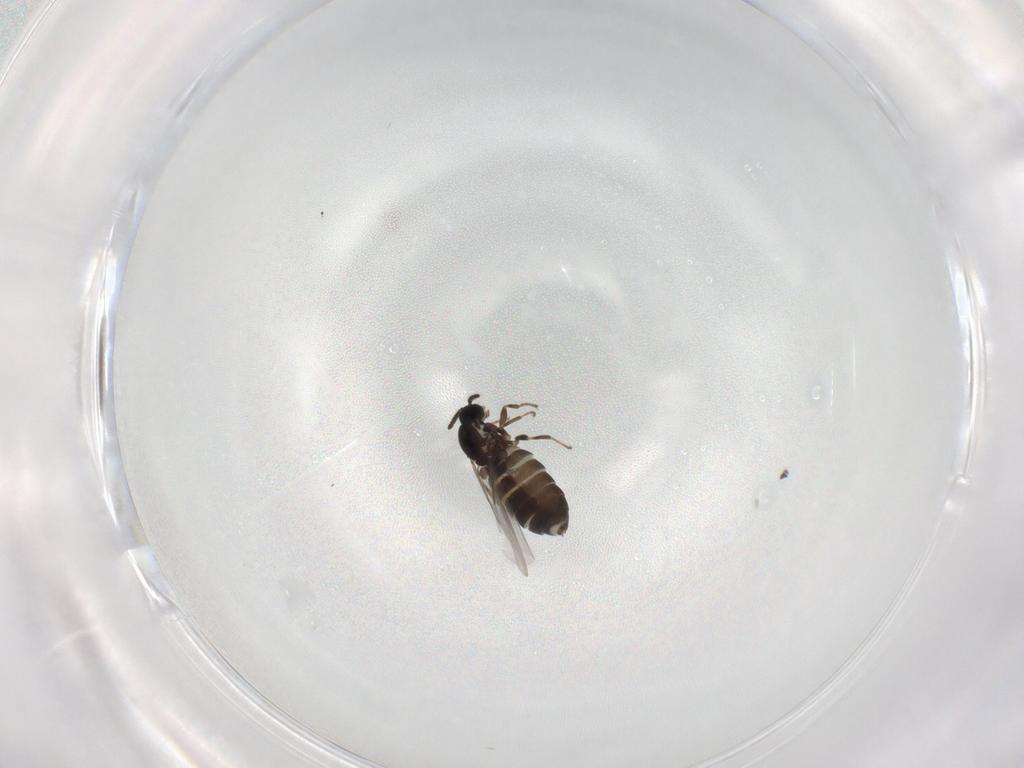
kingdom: Animalia
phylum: Arthropoda
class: Insecta
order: Diptera
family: Scatopsidae
